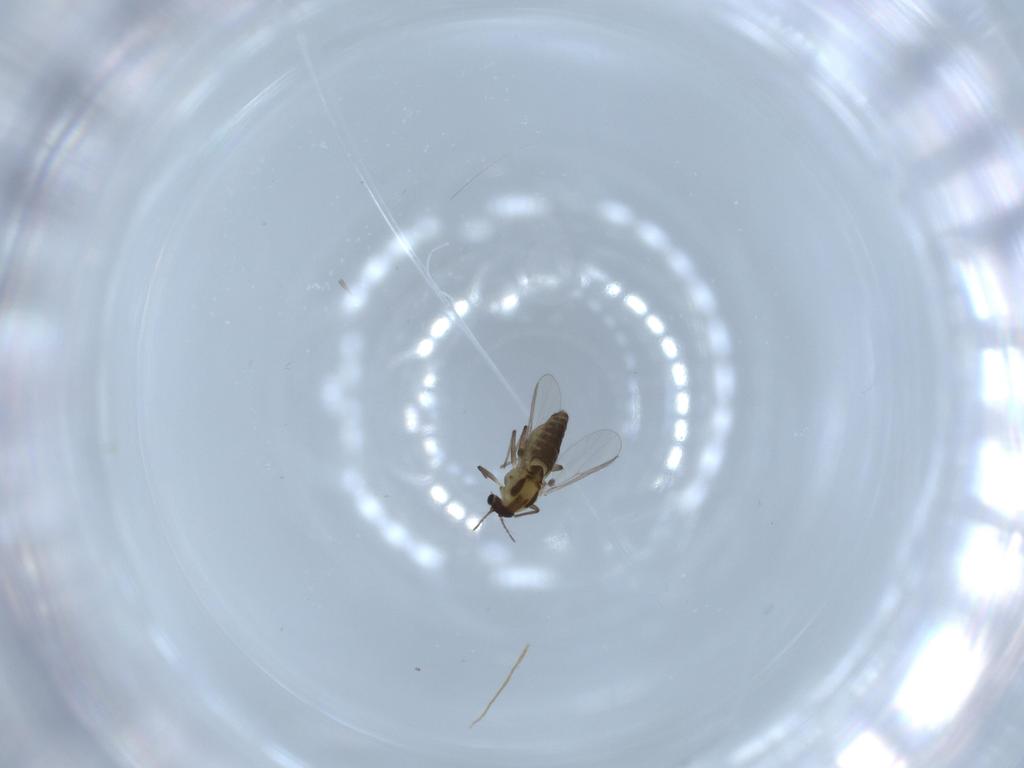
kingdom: Animalia
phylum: Arthropoda
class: Insecta
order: Diptera
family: Chironomidae
